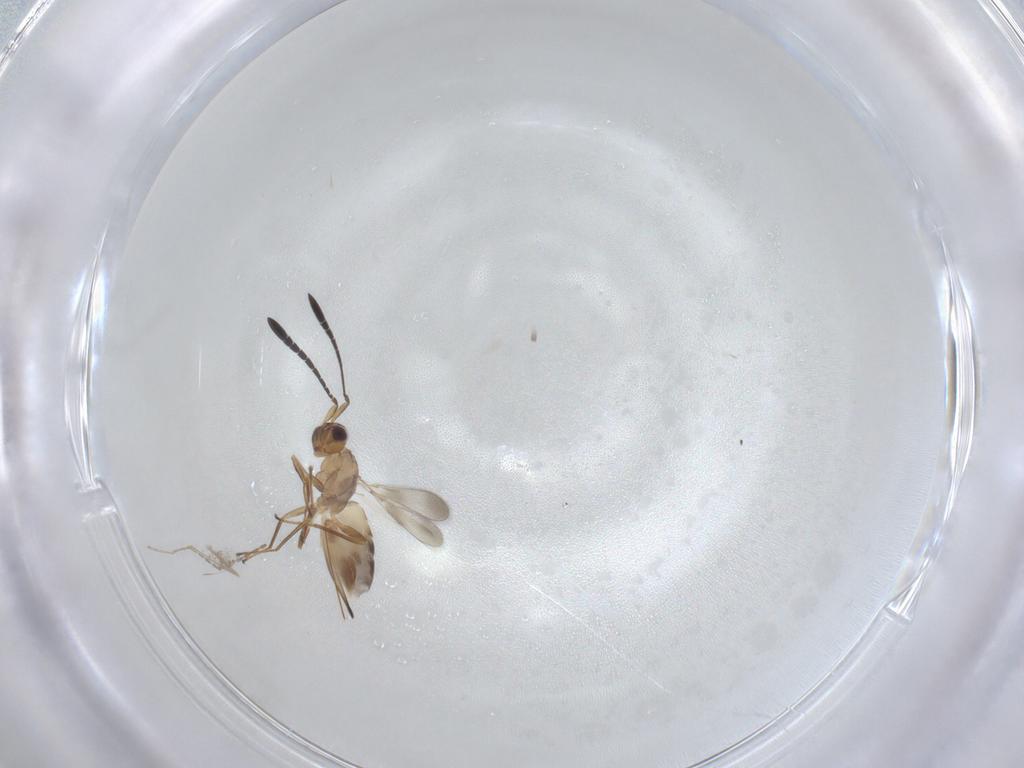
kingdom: Animalia
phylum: Arthropoda
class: Insecta
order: Hymenoptera
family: Mymaridae
